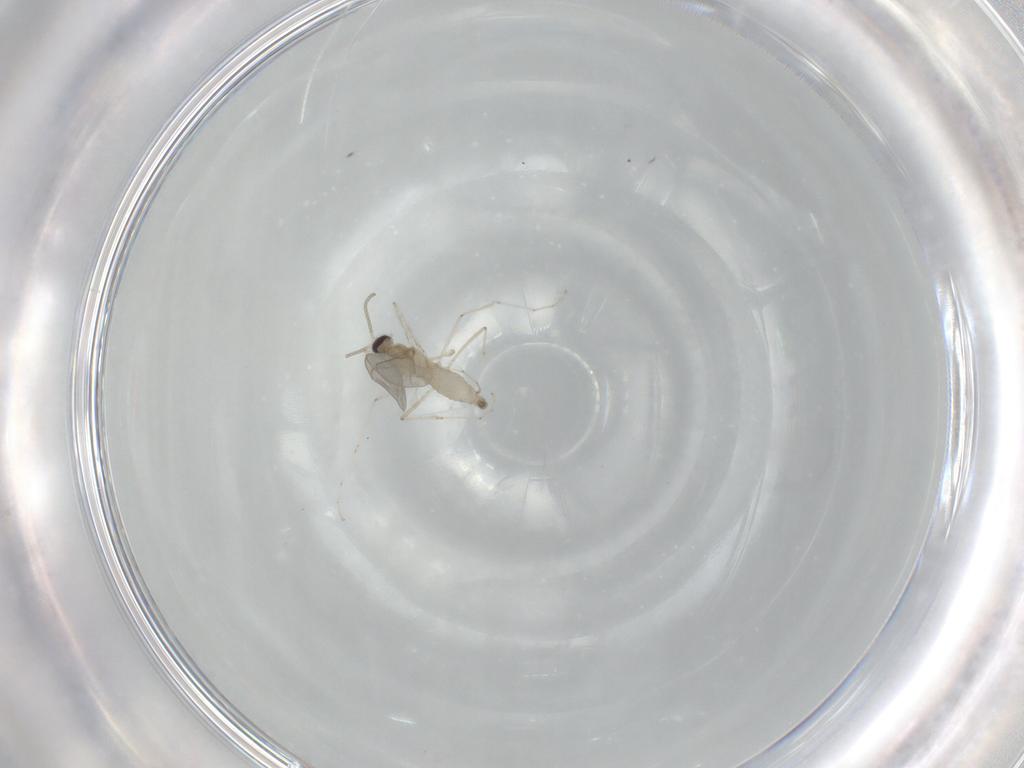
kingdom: Animalia
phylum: Arthropoda
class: Insecta
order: Diptera
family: Cecidomyiidae
